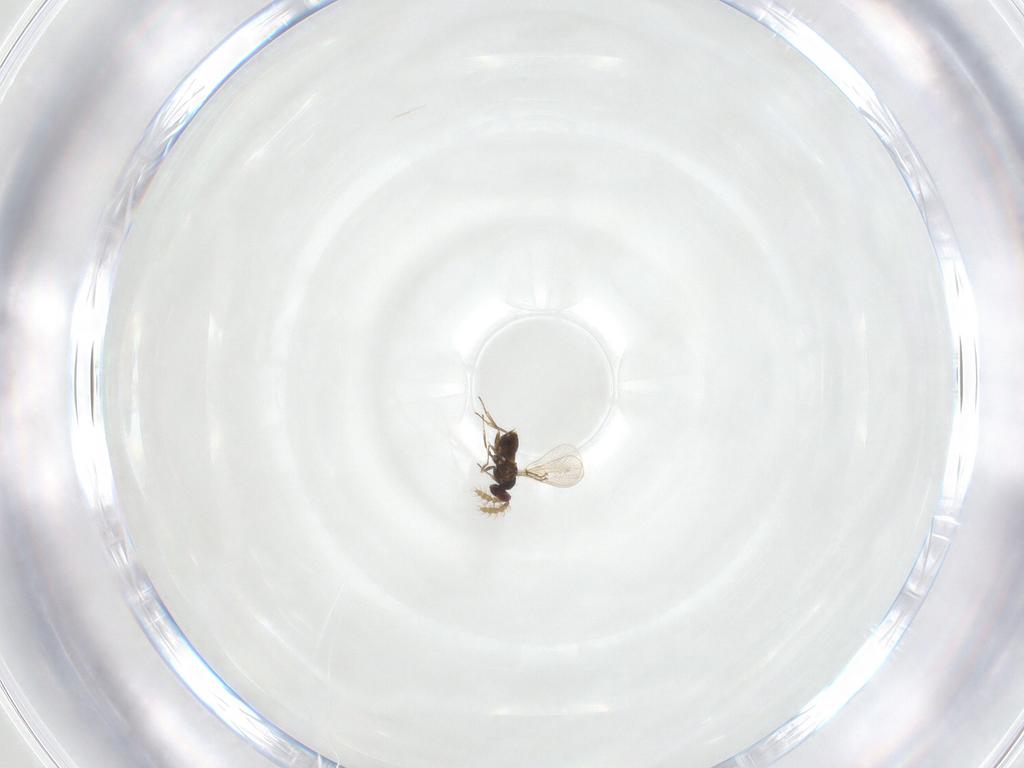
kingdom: Animalia
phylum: Arthropoda
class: Insecta
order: Hymenoptera
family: Trichogrammatidae
